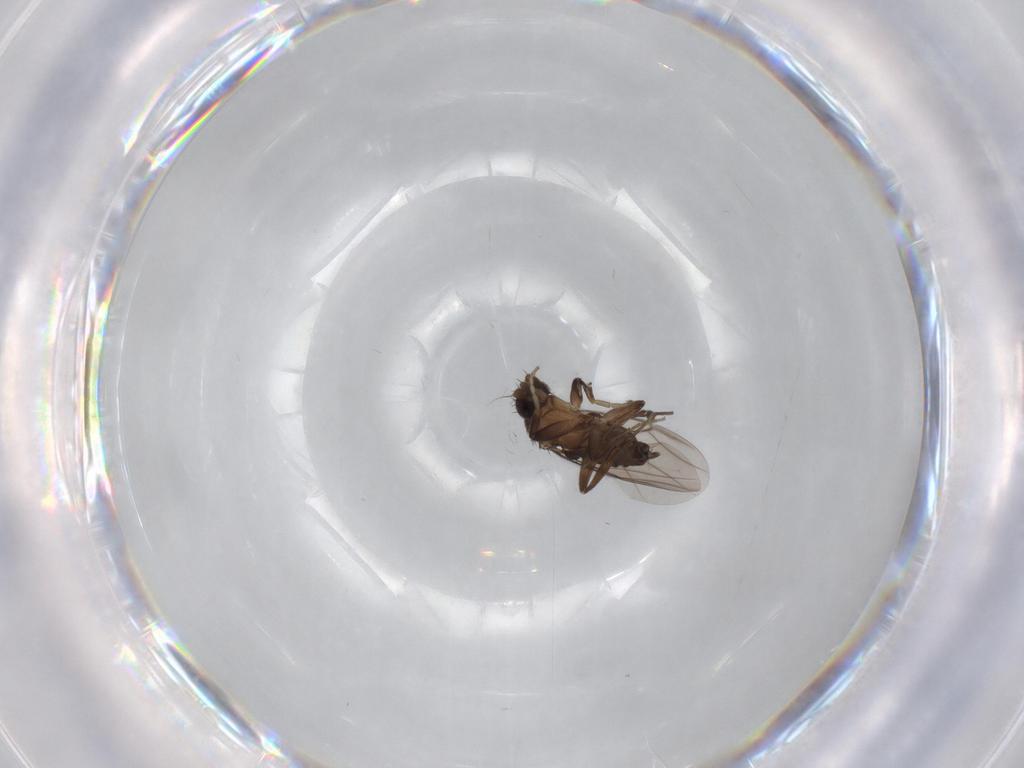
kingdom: Animalia
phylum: Arthropoda
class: Insecta
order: Diptera
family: Phoridae
